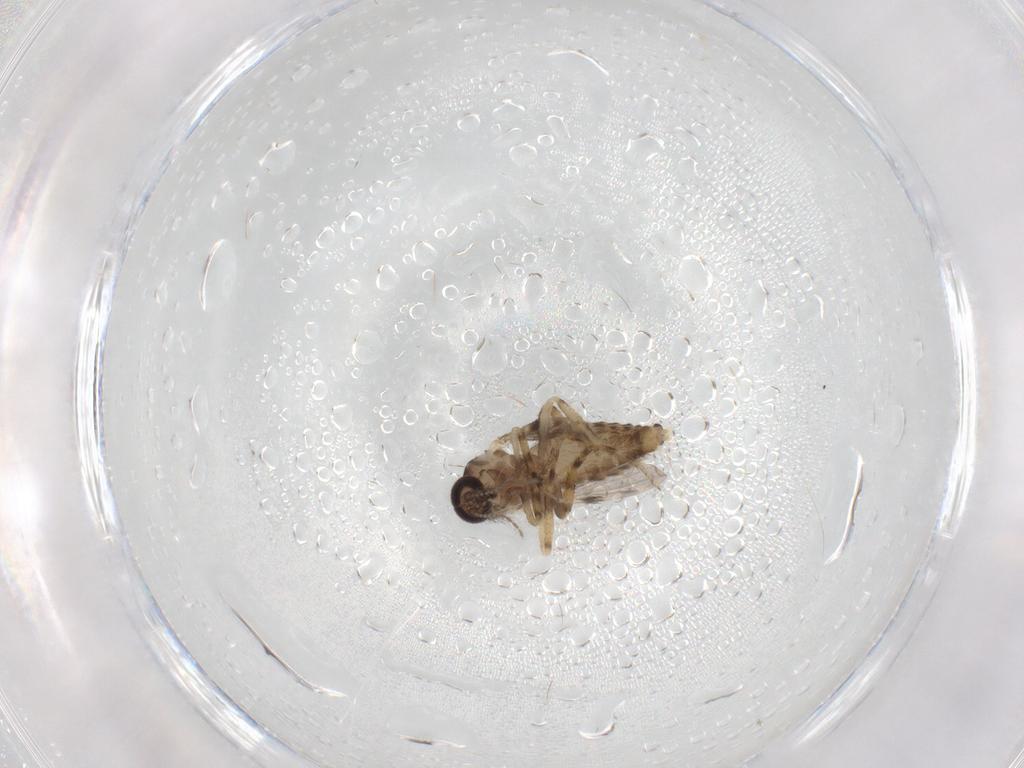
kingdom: Animalia
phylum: Arthropoda
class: Insecta
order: Diptera
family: Ceratopogonidae
